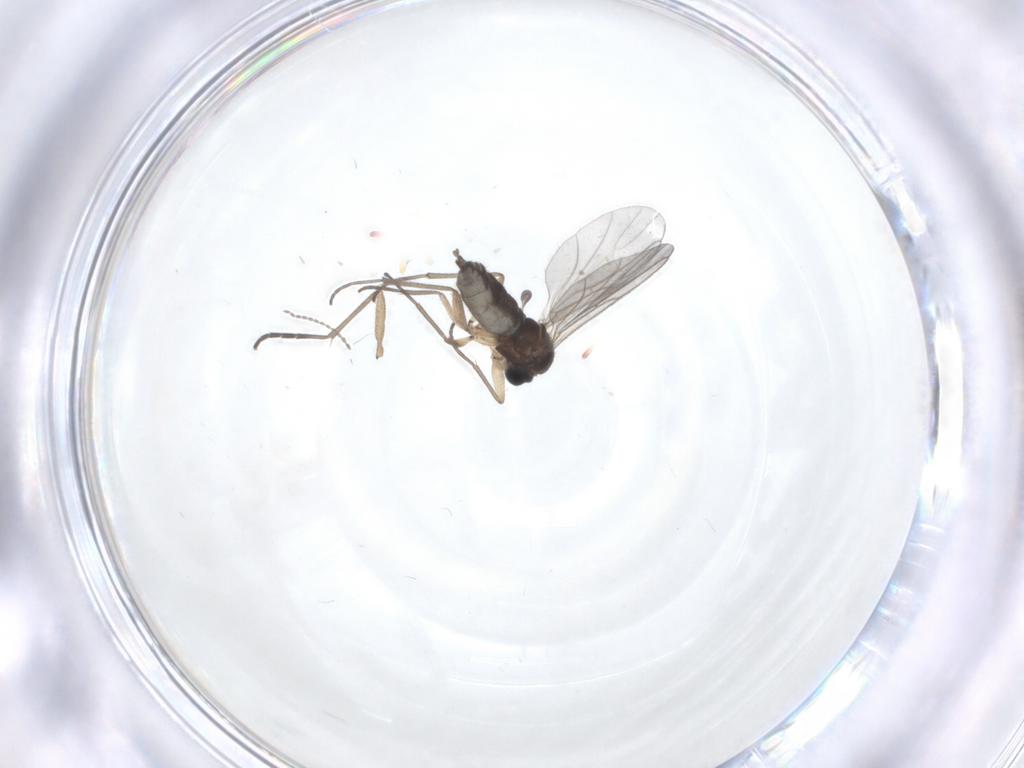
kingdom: Animalia
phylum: Arthropoda
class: Insecta
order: Diptera
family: Sciaridae
